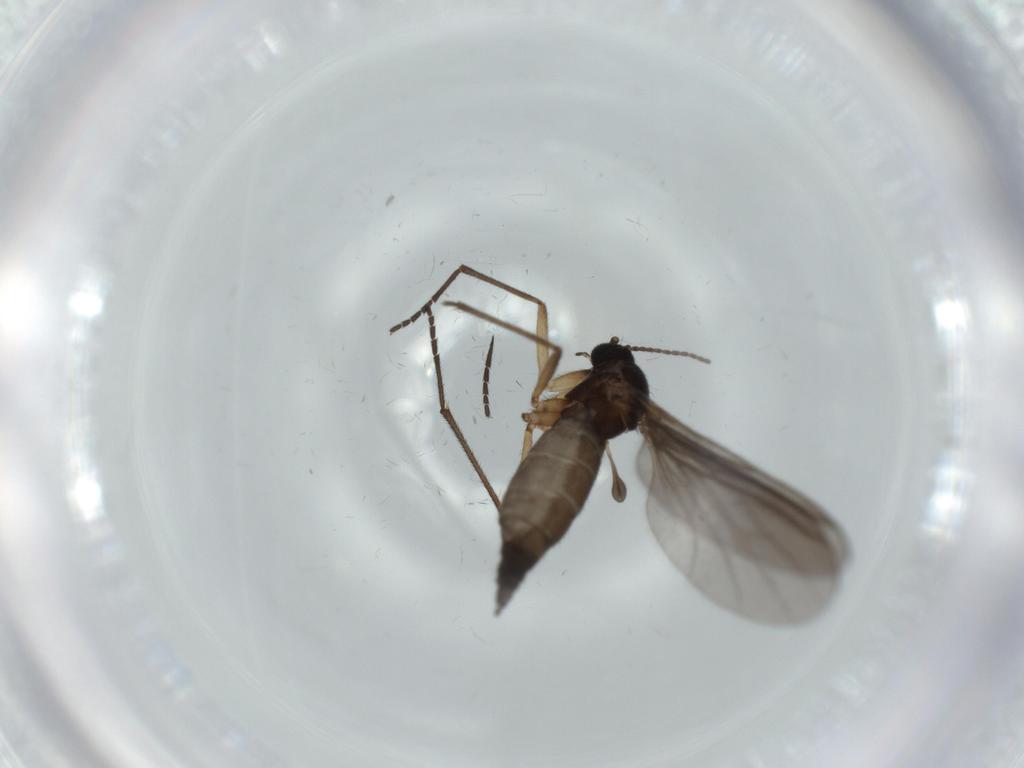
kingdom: Animalia
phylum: Arthropoda
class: Insecta
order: Diptera
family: Sciaridae
